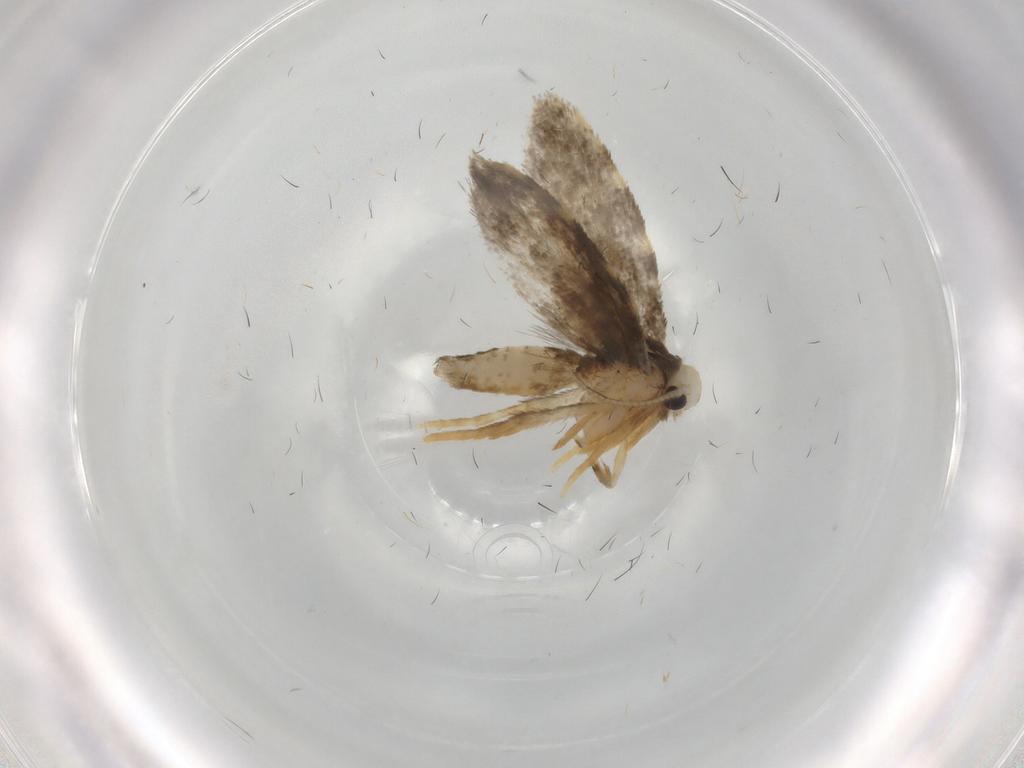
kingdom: Animalia
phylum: Arthropoda
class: Insecta
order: Lepidoptera
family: Psychidae
